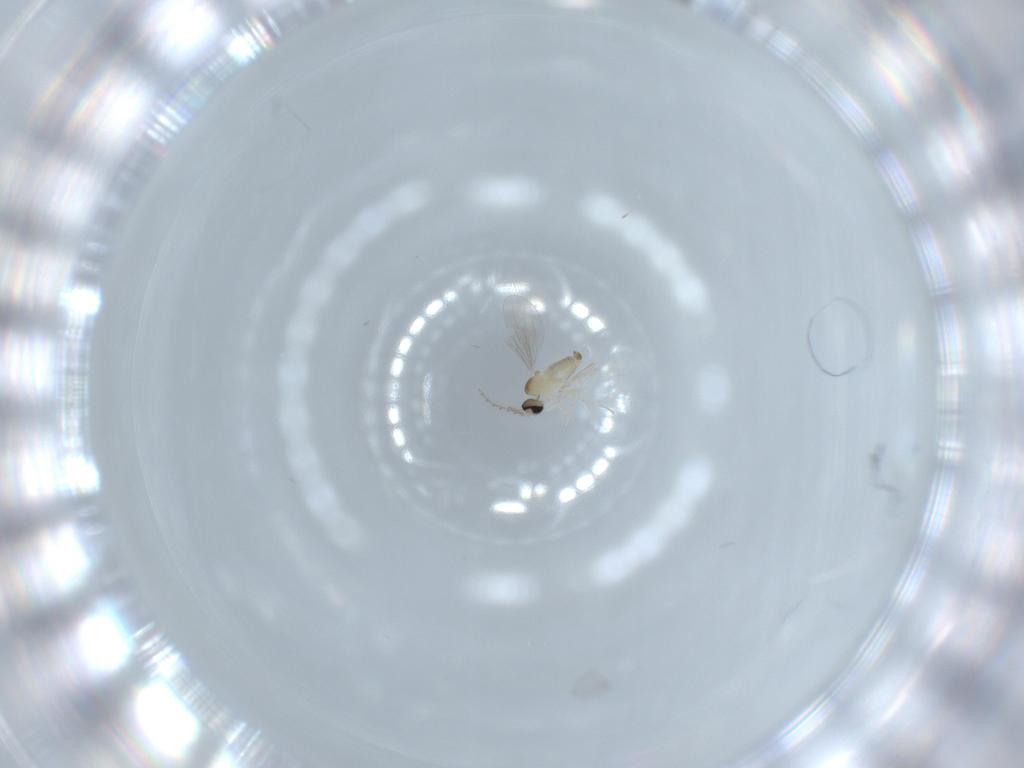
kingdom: Animalia
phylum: Arthropoda
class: Insecta
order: Diptera
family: Cecidomyiidae
